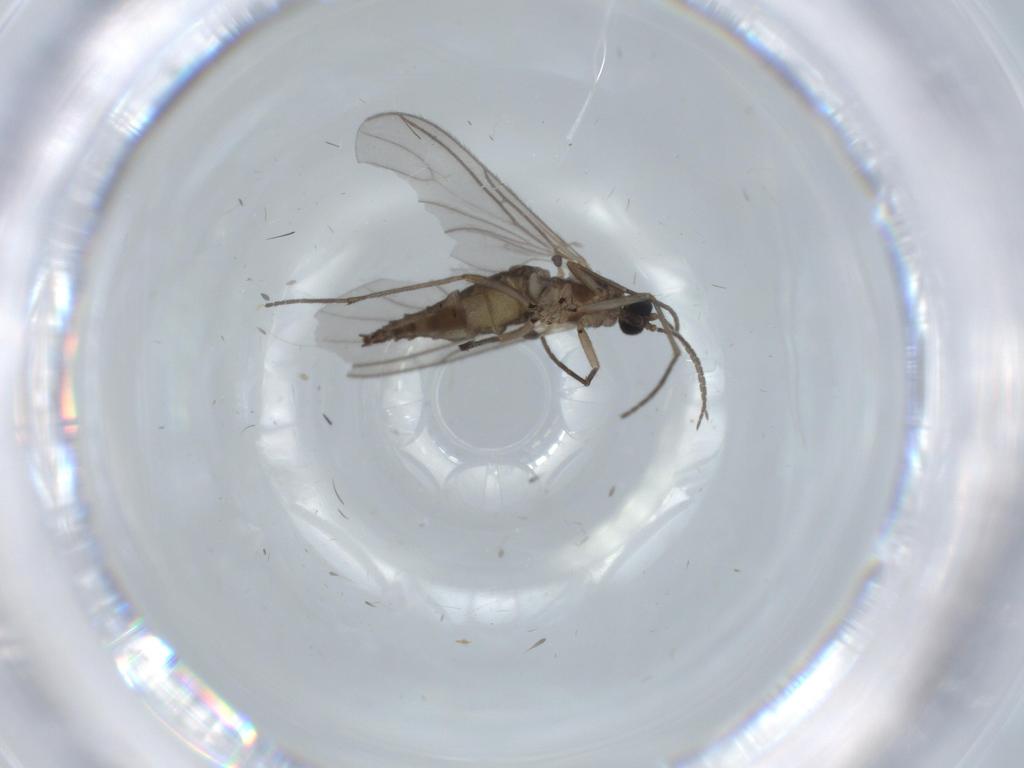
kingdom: Animalia
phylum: Arthropoda
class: Insecta
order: Diptera
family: Sciaridae
